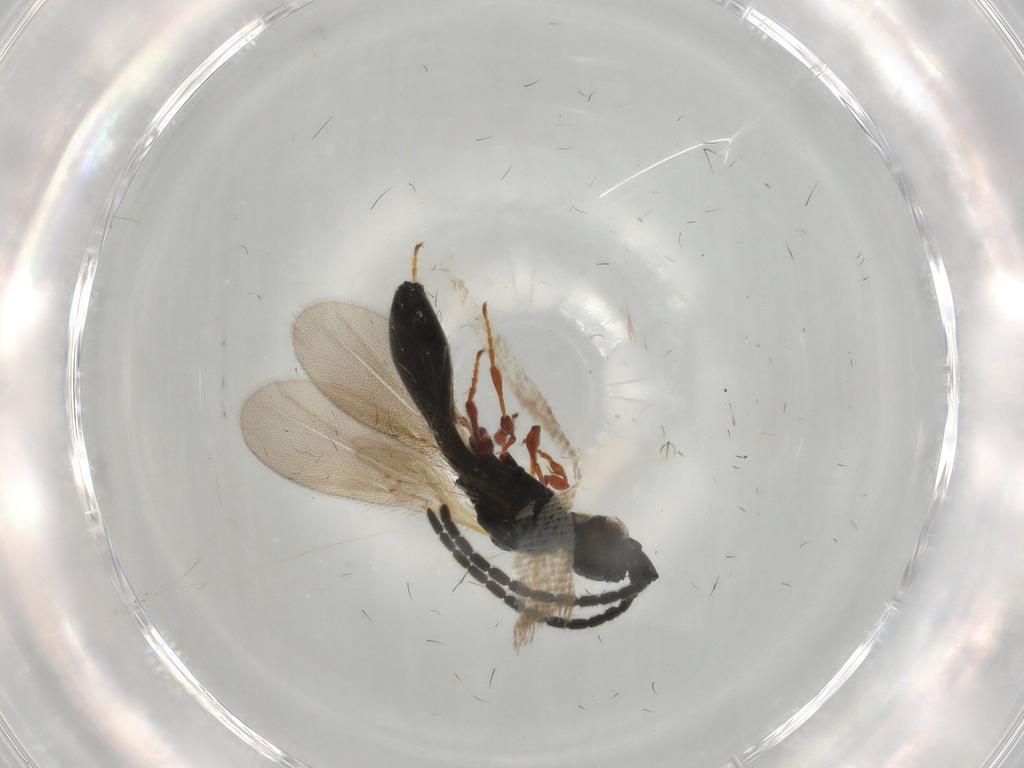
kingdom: Animalia
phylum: Arthropoda
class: Insecta
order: Hymenoptera
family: Diapriidae
